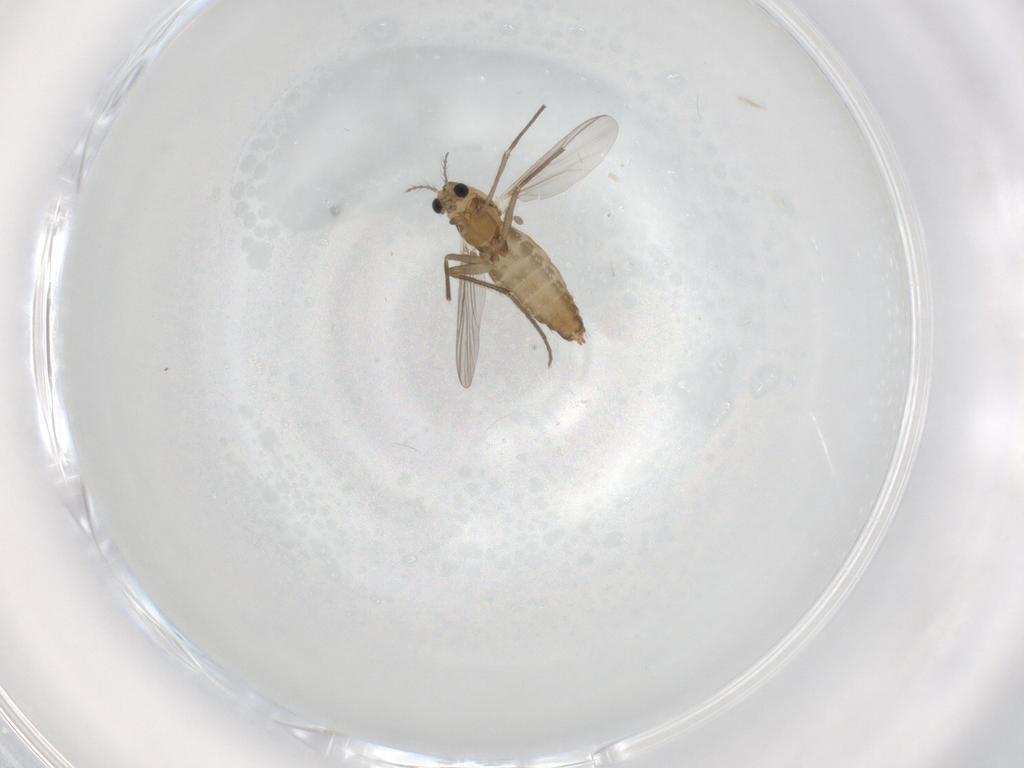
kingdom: Animalia
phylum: Arthropoda
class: Insecta
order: Diptera
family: Chironomidae
